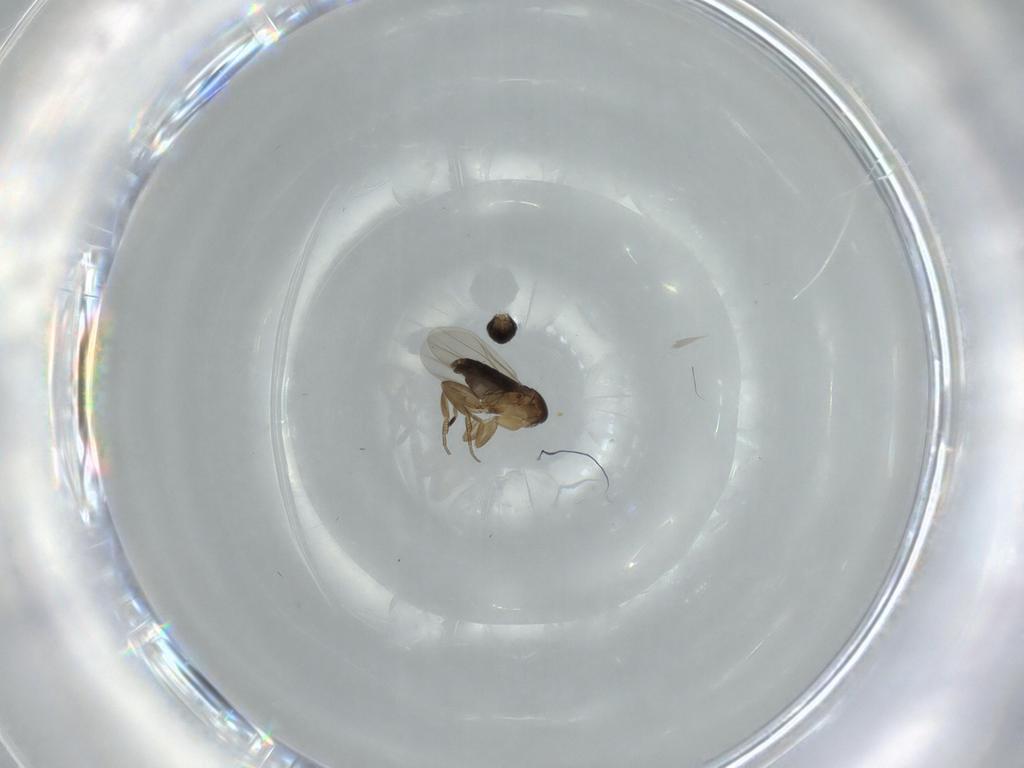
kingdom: Animalia
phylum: Arthropoda
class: Insecta
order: Diptera
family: Phoridae
